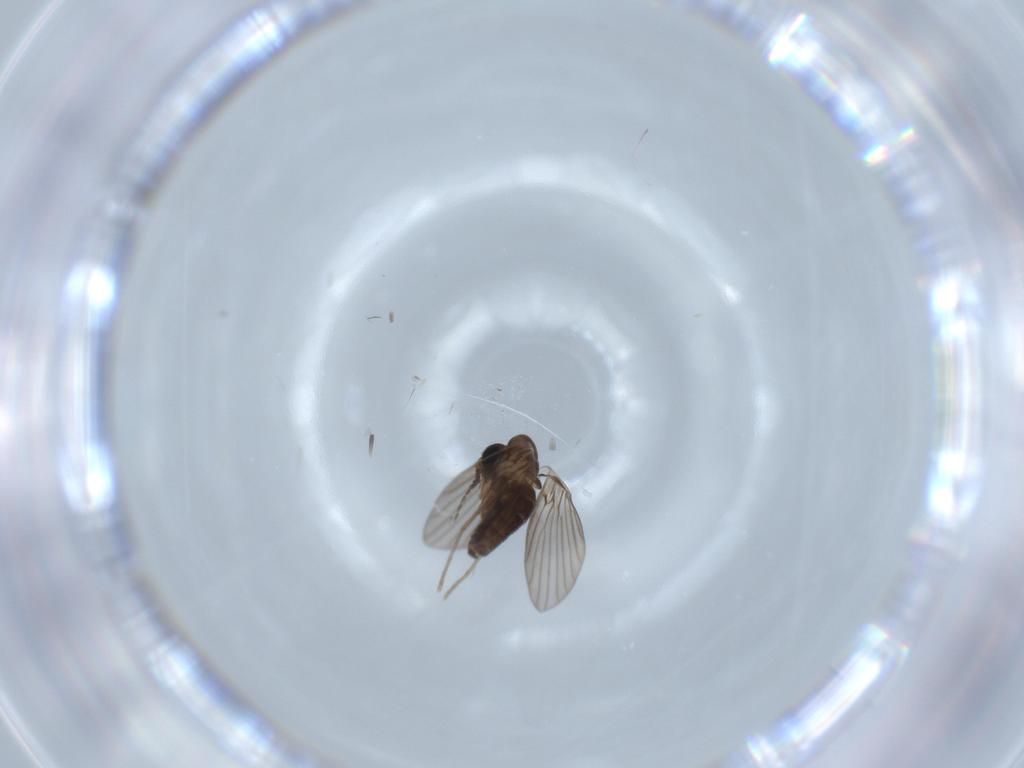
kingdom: Animalia
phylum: Arthropoda
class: Insecta
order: Diptera
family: Psychodidae
